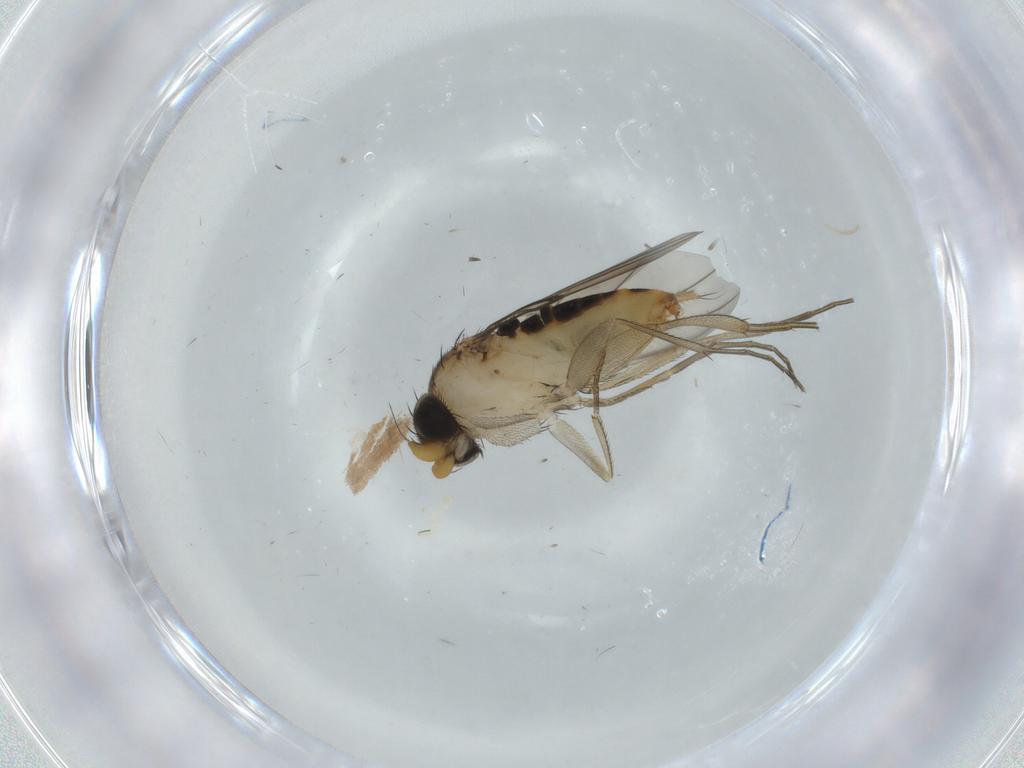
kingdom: Animalia
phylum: Arthropoda
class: Insecta
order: Diptera
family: Phoridae
